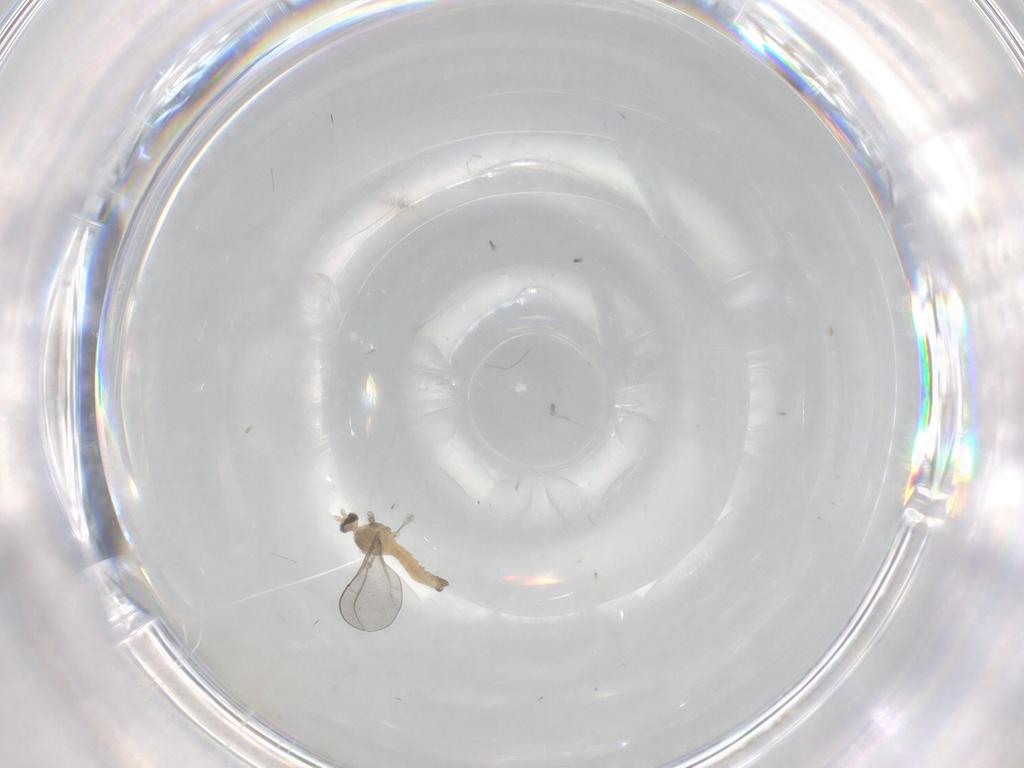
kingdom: Animalia
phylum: Arthropoda
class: Insecta
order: Diptera
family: Cecidomyiidae
